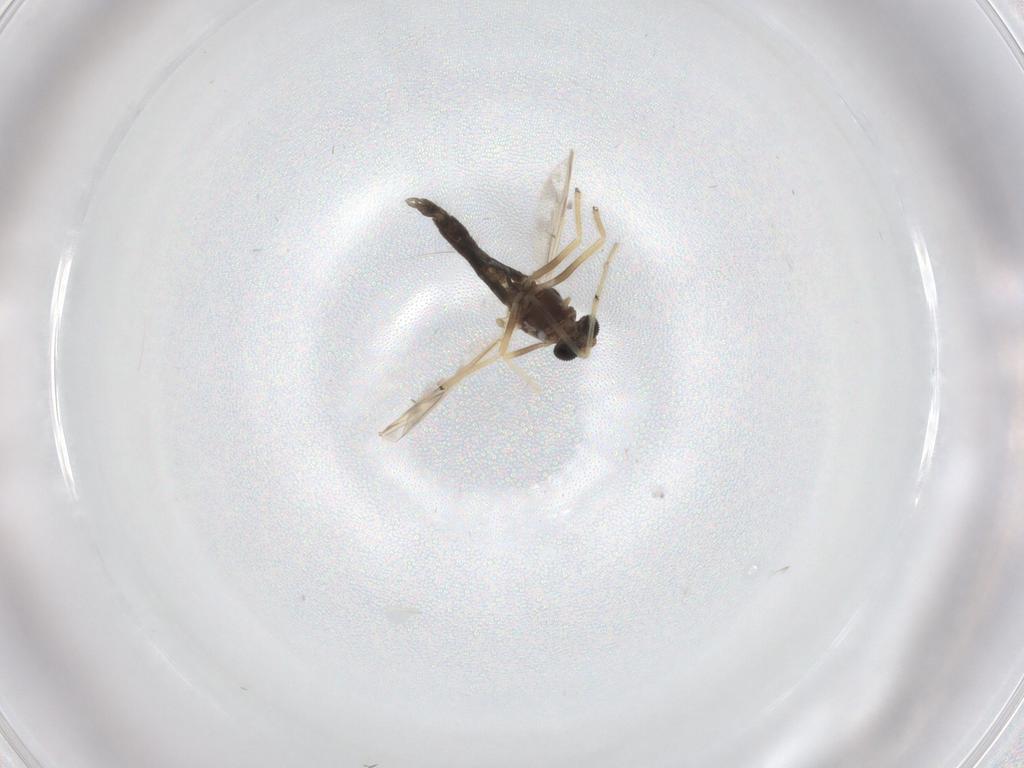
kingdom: Animalia
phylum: Arthropoda
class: Insecta
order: Diptera
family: Chironomidae
